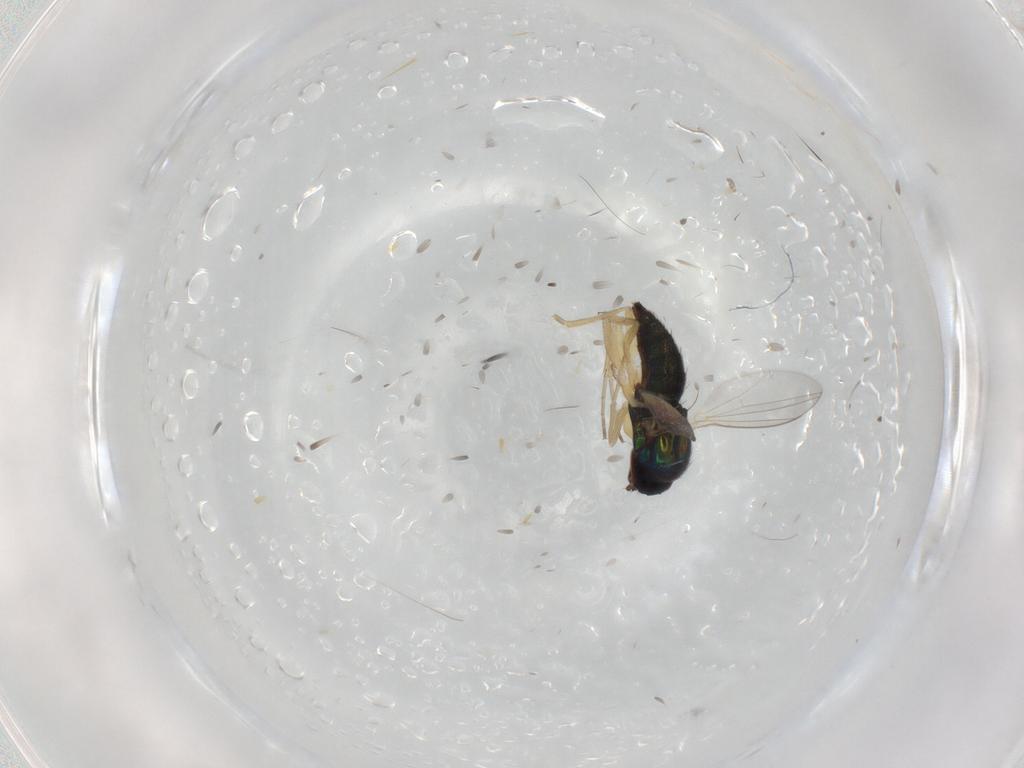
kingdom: Animalia
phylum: Arthropoda
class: Insecta
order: Diptera
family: Dolichopodidae
